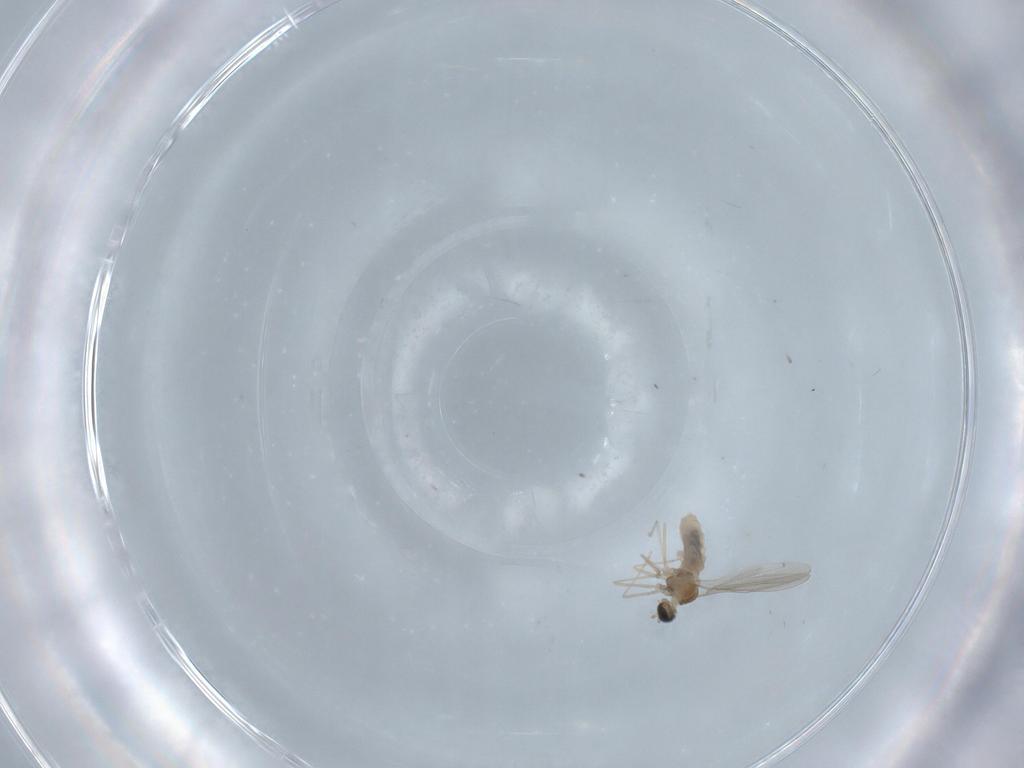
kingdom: Animalia
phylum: Arthropoda
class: Insecta
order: Diptera
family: Cecidomyiidae
